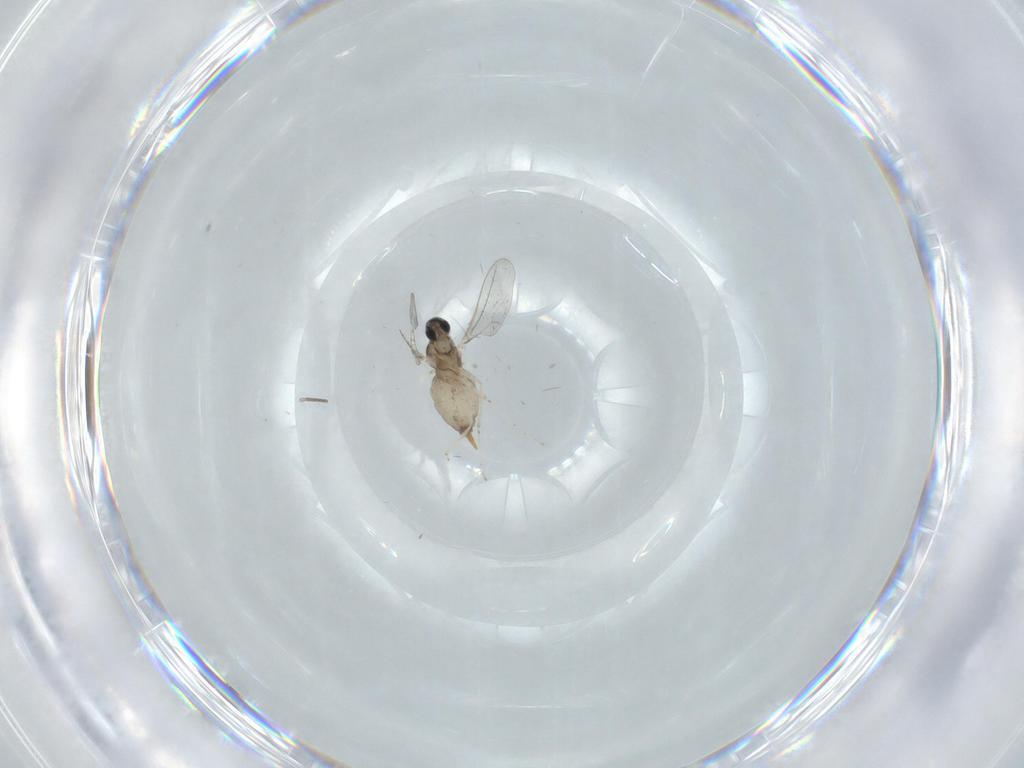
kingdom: Animalia
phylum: Arthropoda
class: Insecta
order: Diptera
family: Cecidomyiidae
